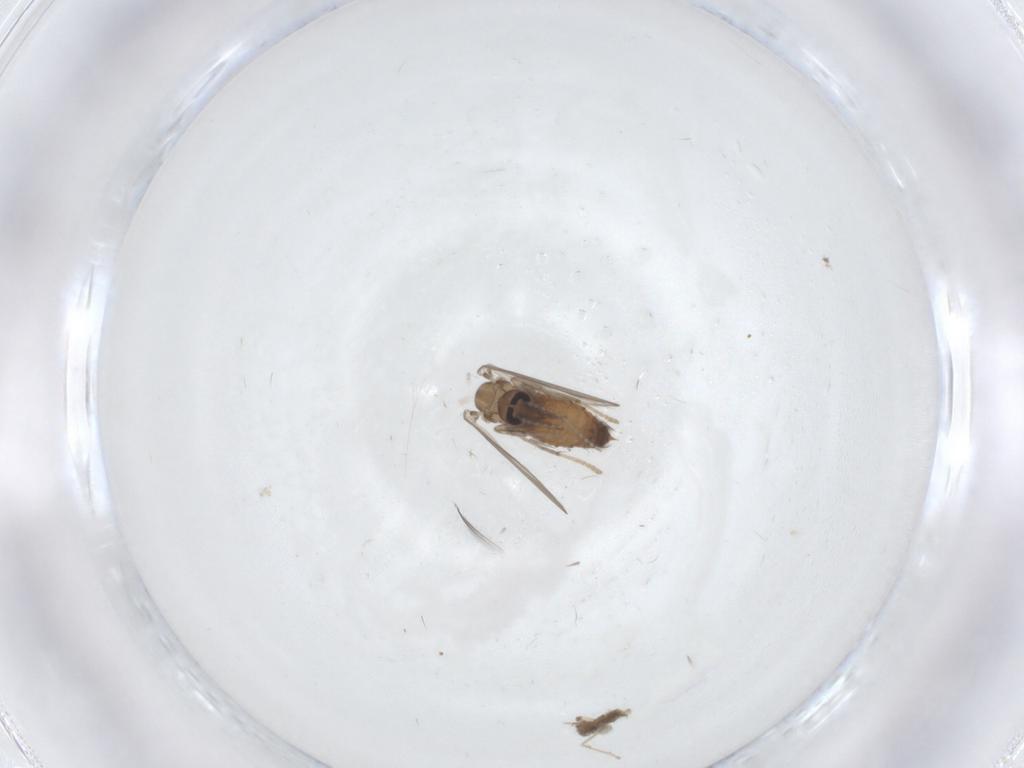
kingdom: Animalia
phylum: Arthropoda
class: Insecta
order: Diptera
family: Psychodidae
